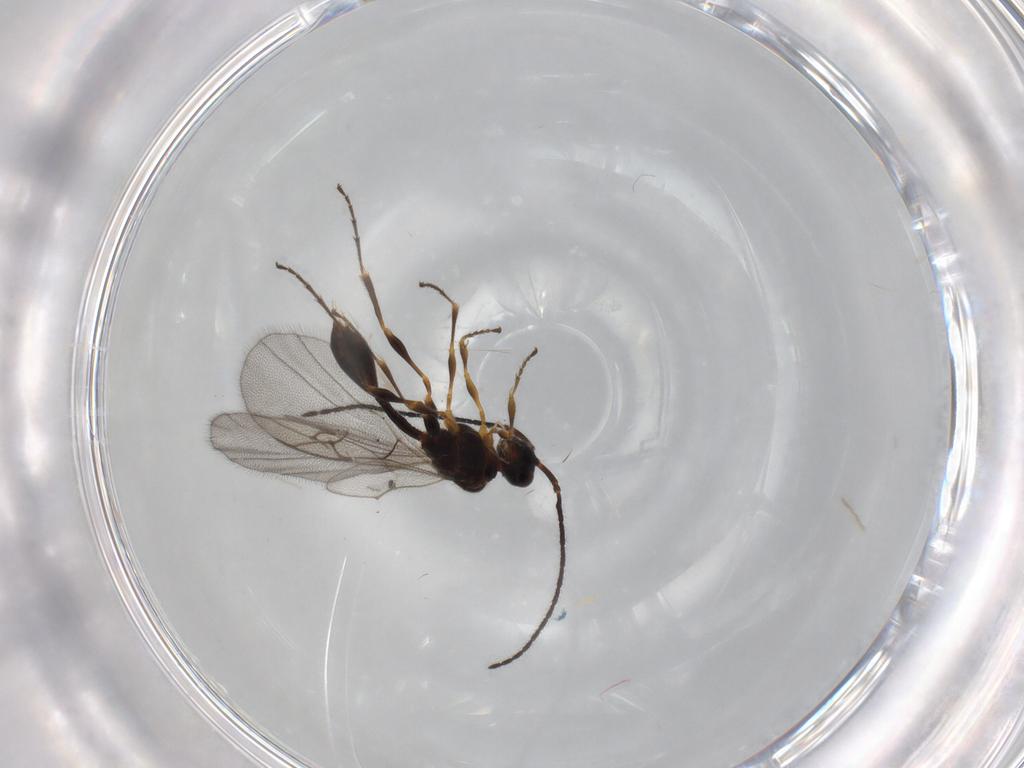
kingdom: Animalia
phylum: Arthropoda
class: Insecta
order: Hymenoptera
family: Diapriidae
